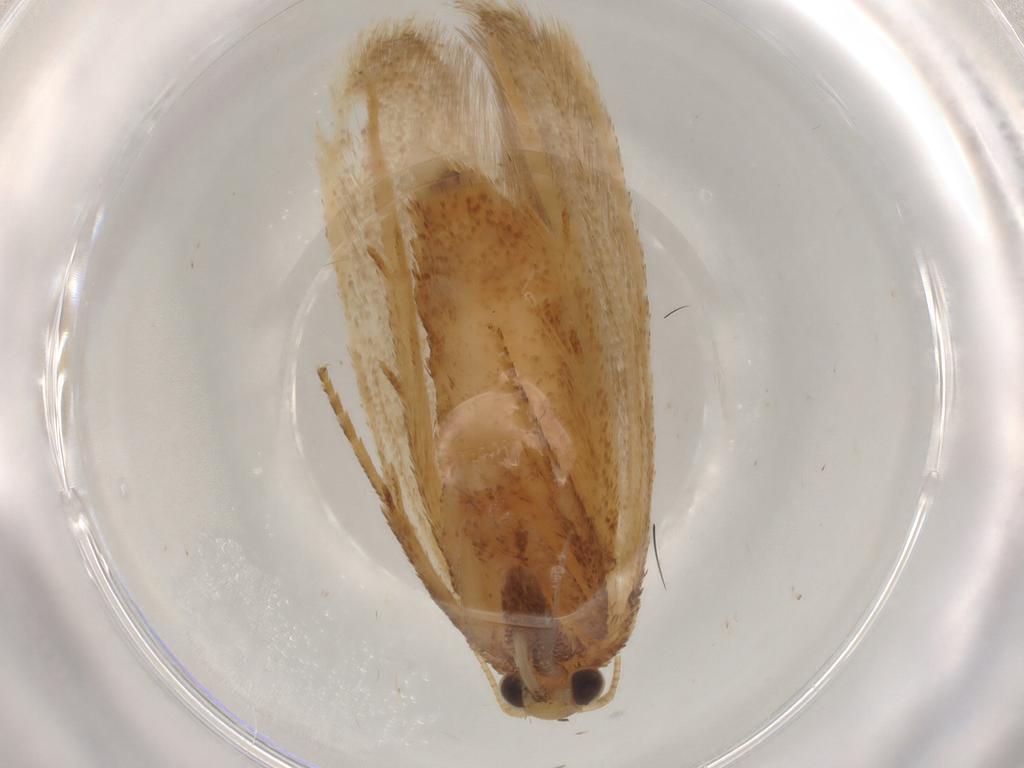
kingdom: Animalia
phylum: Arthropoda
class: Insecta
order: Lepidoptera
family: Autostichidae
